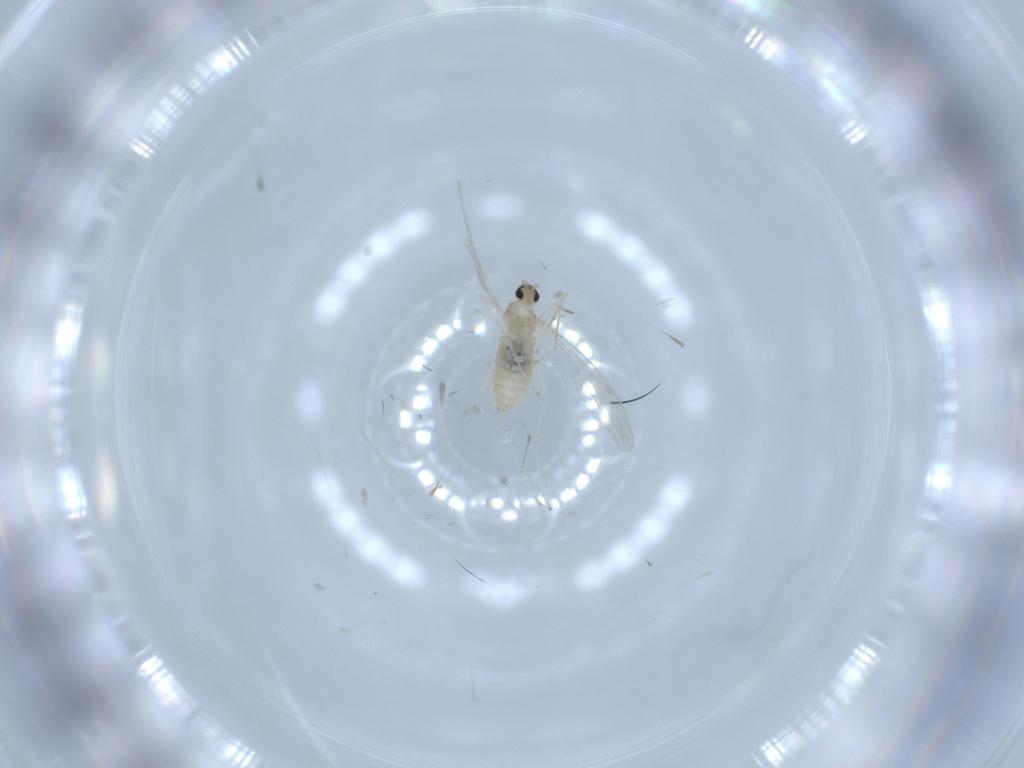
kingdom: Animalia
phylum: Arthropoda
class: Insecta
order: Diptera
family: Cecidomyiidae
